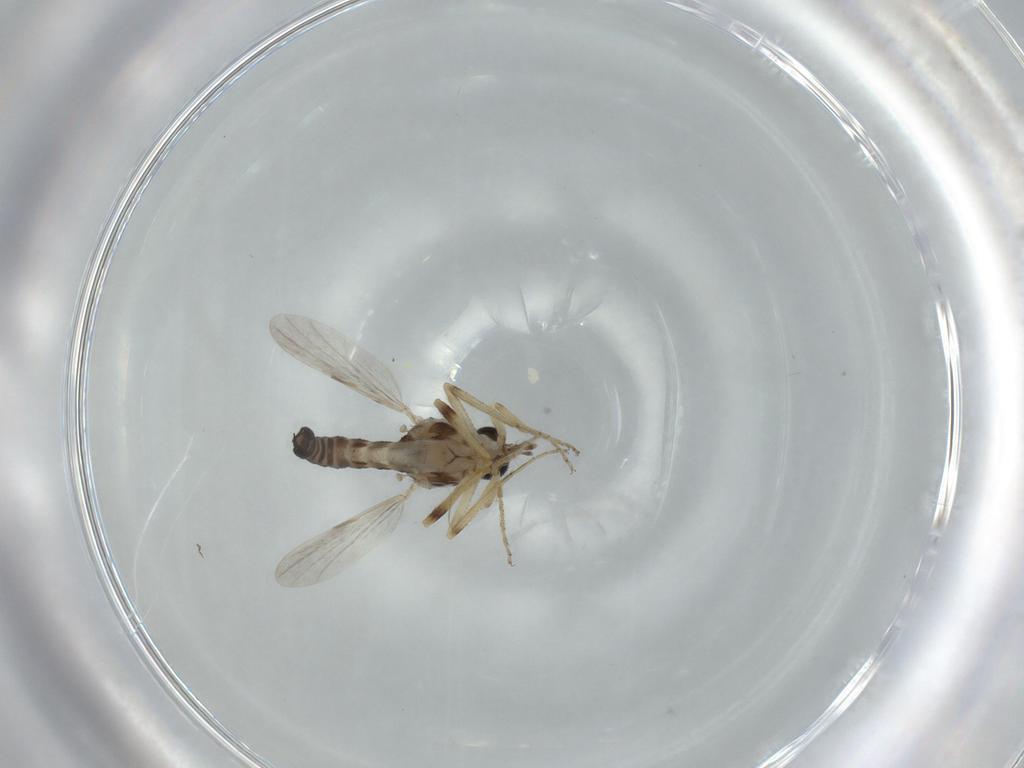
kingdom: Animalia
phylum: Arthropoda
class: Insecta
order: Diptera
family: Ceratopogonidae
